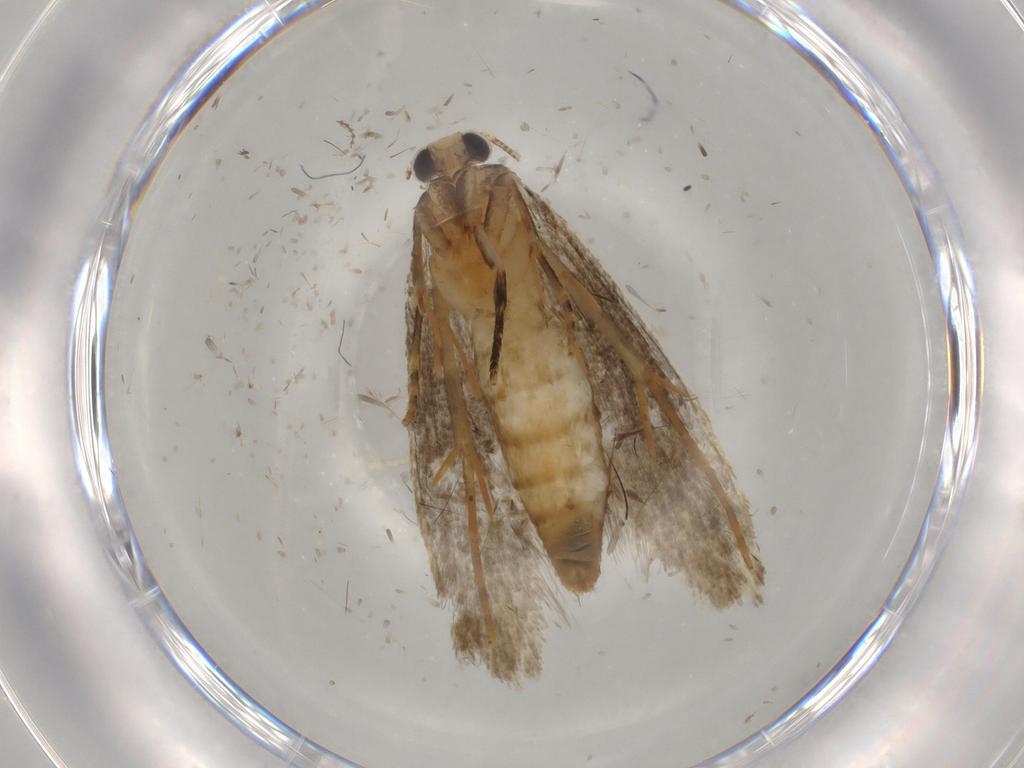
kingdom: Animalia
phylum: Arthropoda
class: Insecta
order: Lepidoptera
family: Tineidae
